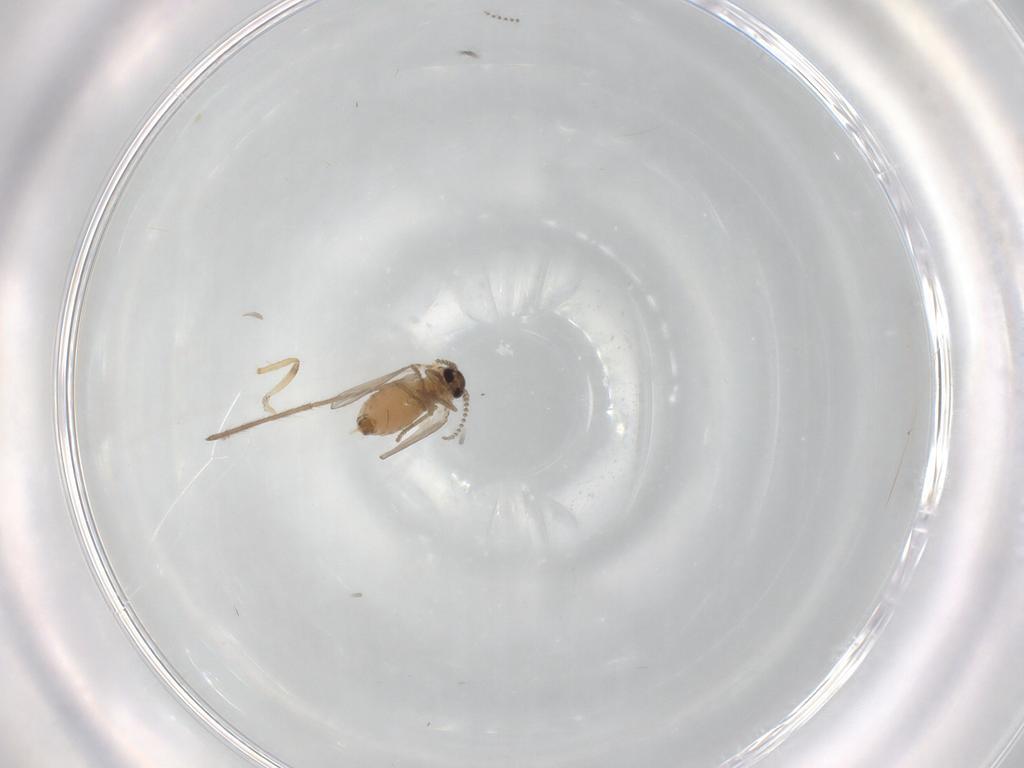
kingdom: Animalia
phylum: Arthropoda
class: Insecta
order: Diptera
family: Psychodidae
